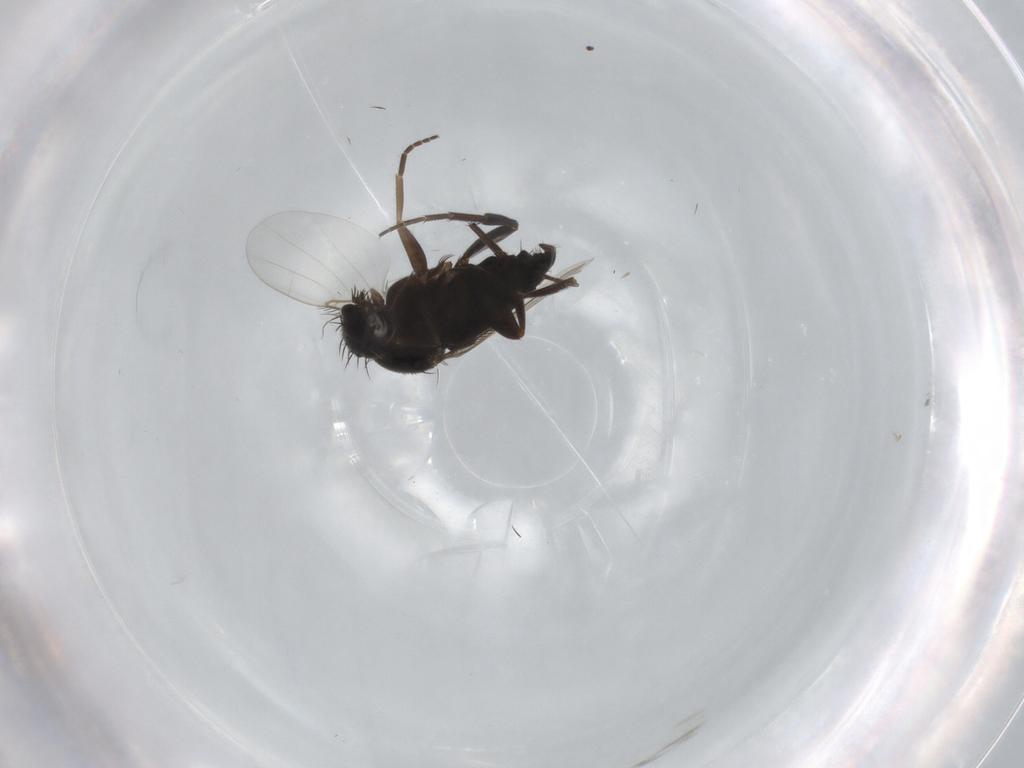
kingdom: Animalia
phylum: Arthropoda
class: Insecta
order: Diptera
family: Phoridae
